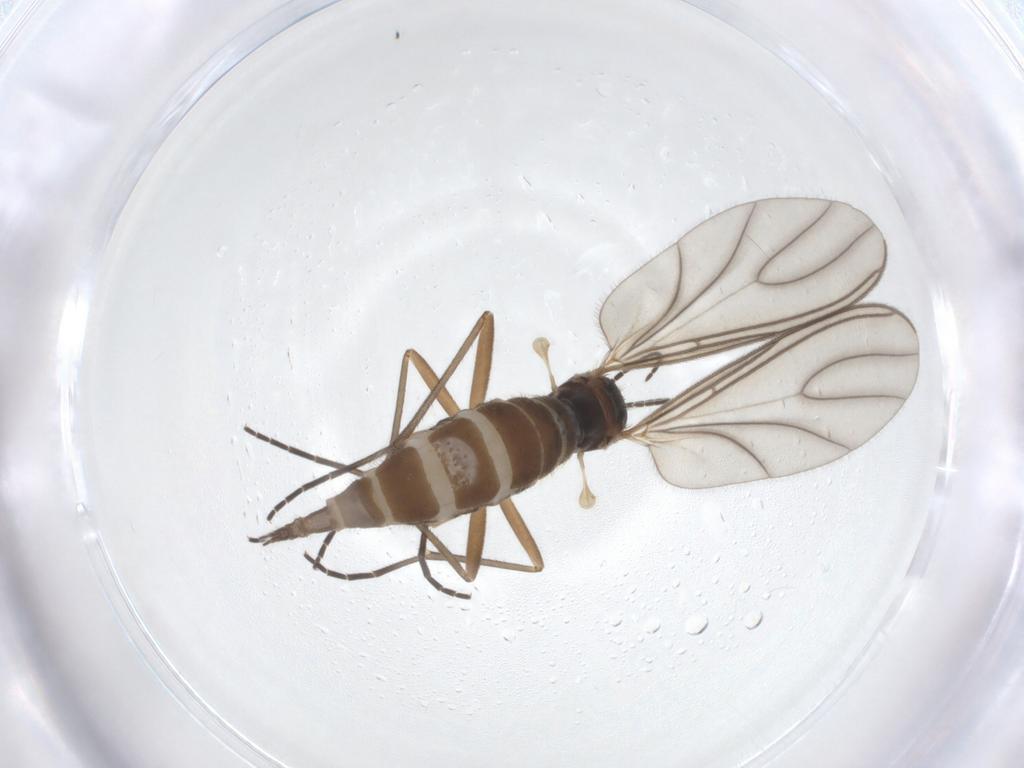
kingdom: Animalia
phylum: Arthropoda
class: Insecta
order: Diptera
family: Sciaridae
